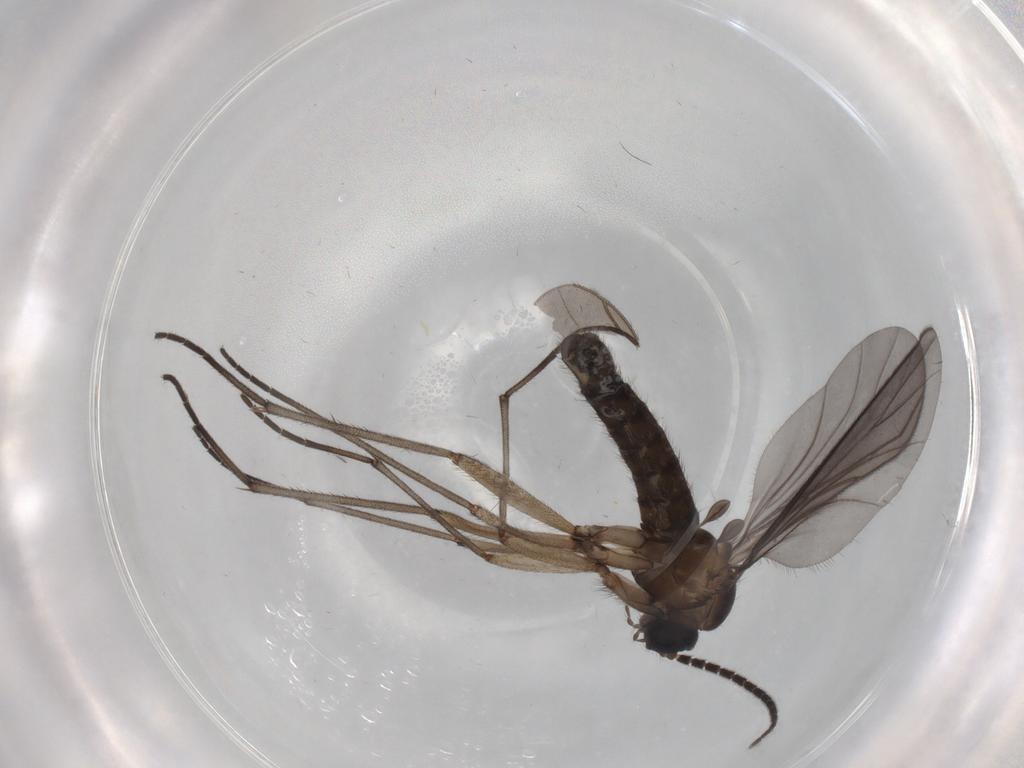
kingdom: Animalia
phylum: Arthropoda
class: Insecta
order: Diptera
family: Sciaridae
